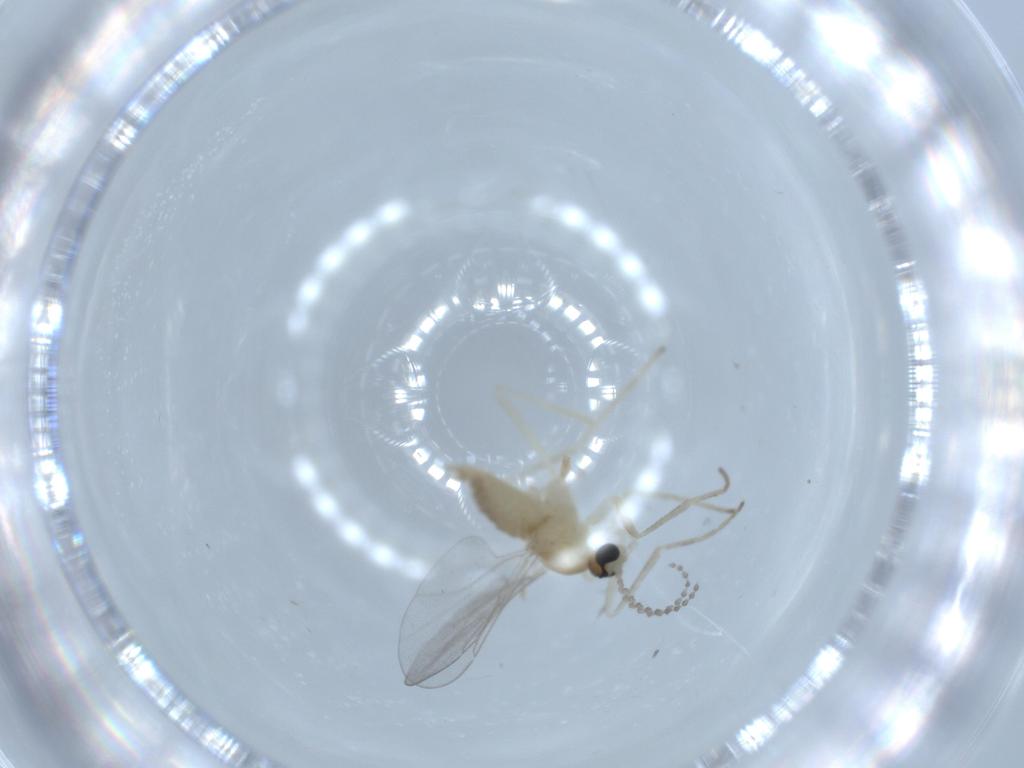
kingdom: Animalia
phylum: Arthropoda
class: Insecta
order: Diptera
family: Cecidomyiidae
